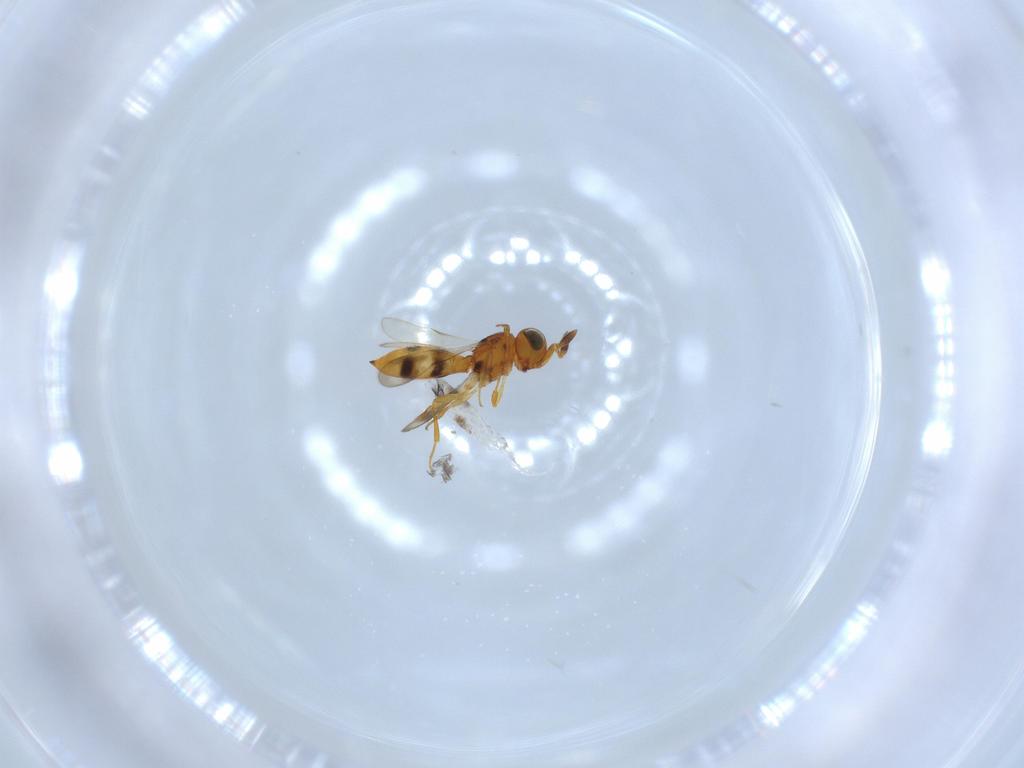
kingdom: Animalia
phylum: Arthropoda
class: Insecta
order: Hymenoptera
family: Scelionidae
